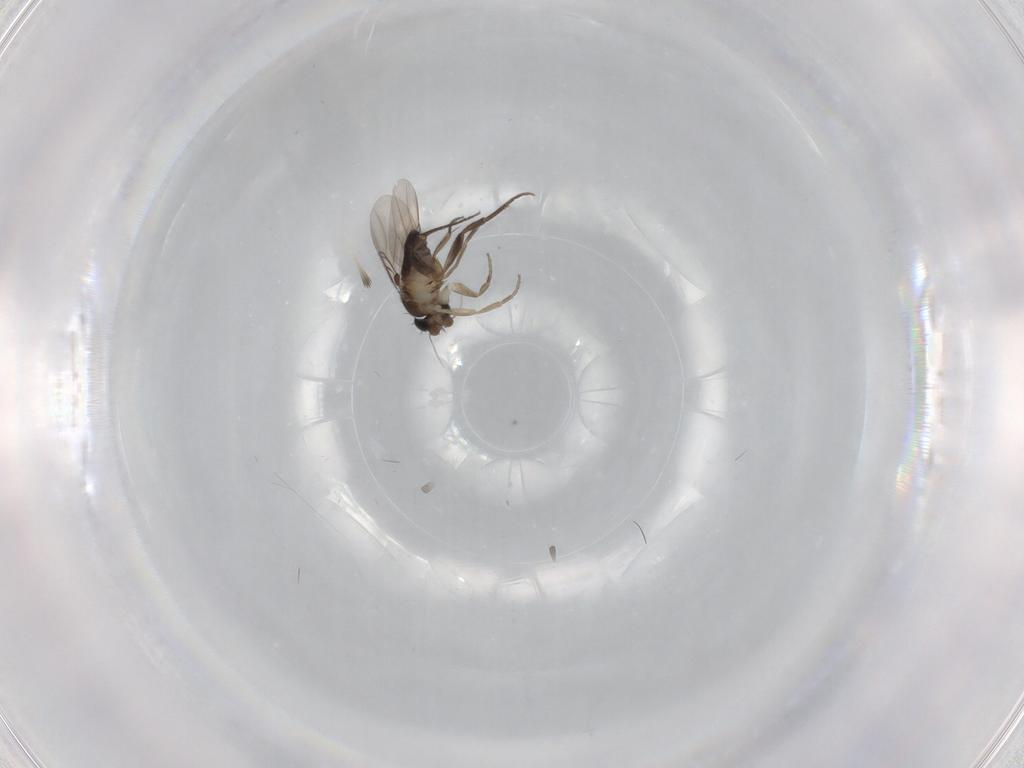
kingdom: Animalia
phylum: Arthropoda
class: Insecta
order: Diptera
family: Phoridae
